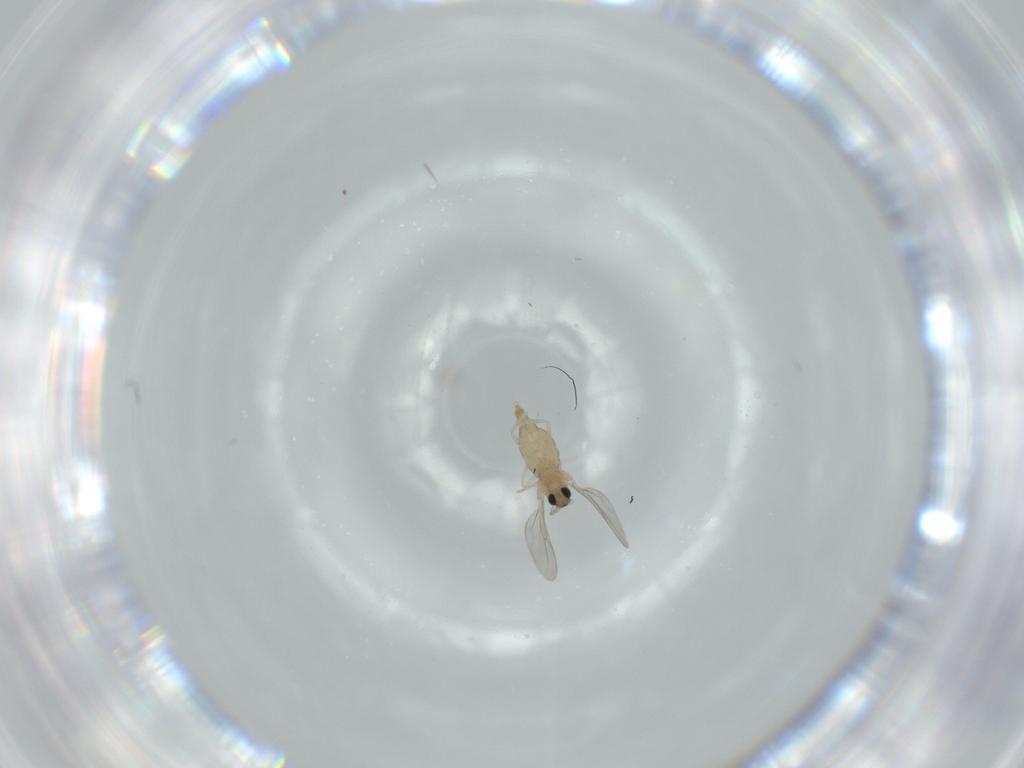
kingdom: Animalia
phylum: Arthropoda
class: Insecta
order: Diptera
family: Cecidomyiidae
